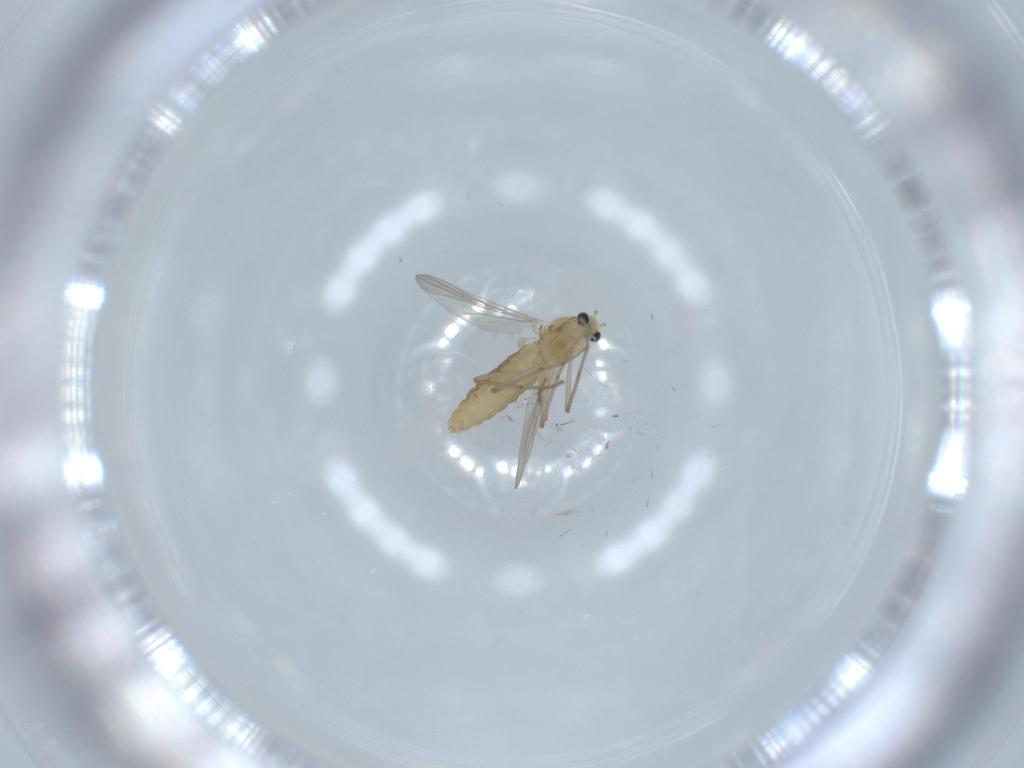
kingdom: Animalia
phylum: Arthropoda
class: Insecta
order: Diptera
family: Chironomidae
